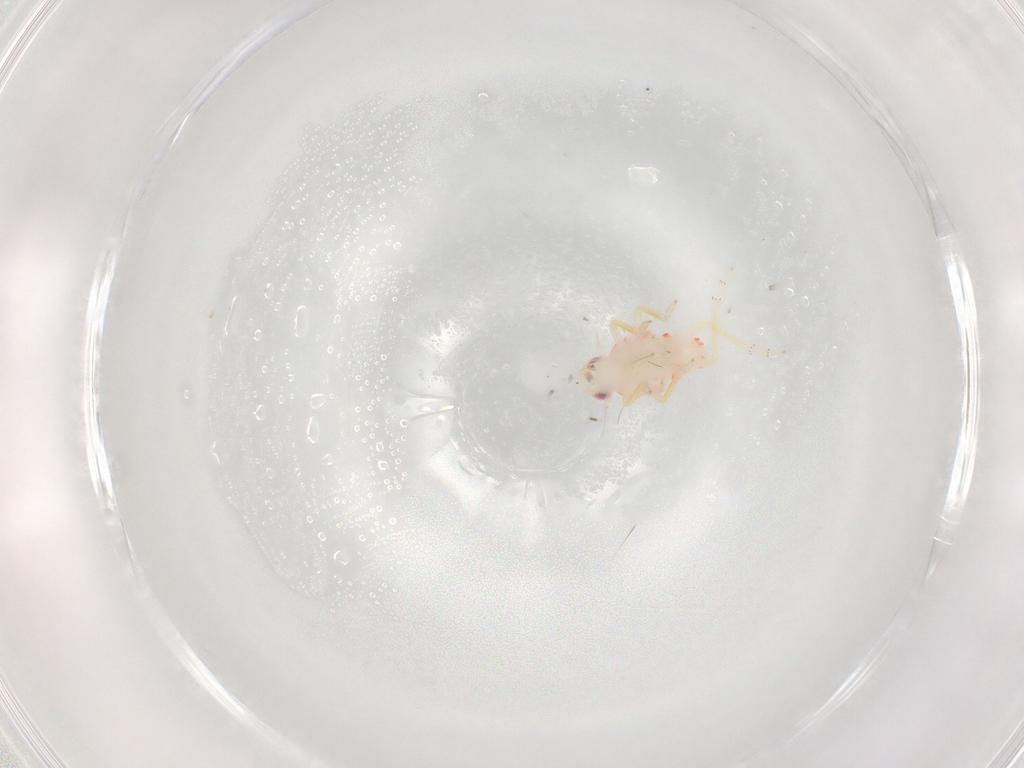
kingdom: Animalia
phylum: Arthropoda
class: Insecta
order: Hemiptera
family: Tropiduchidae
